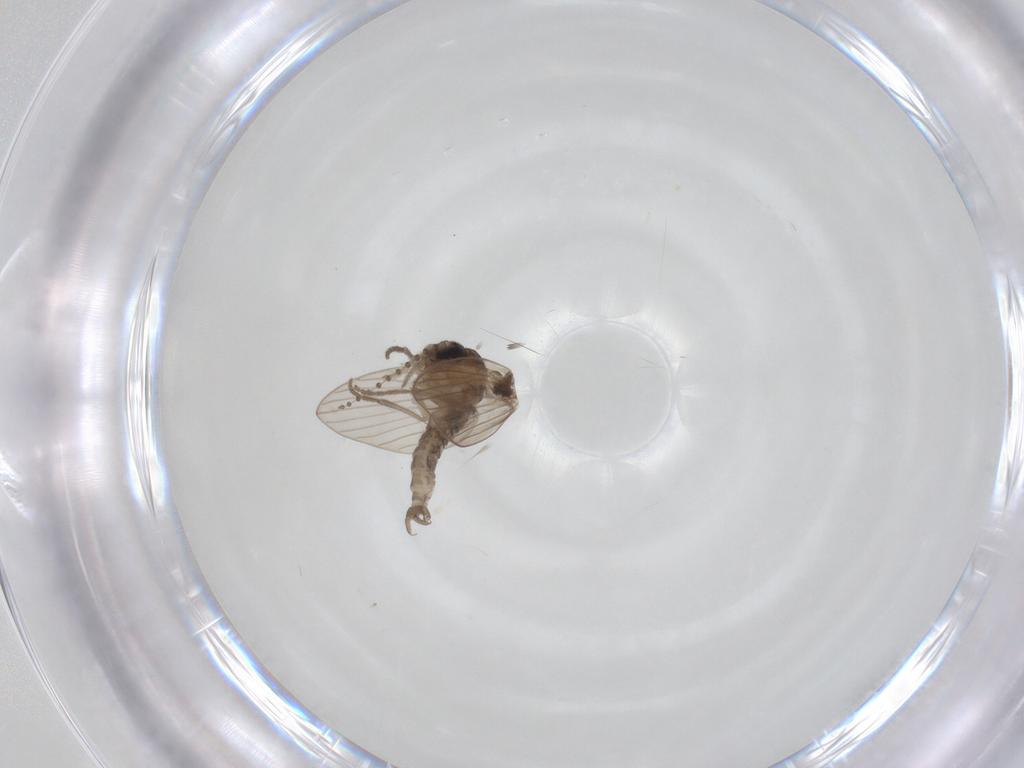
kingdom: Animalia
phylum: Arthropoda
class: Insecta
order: Diptera
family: Psychodidae
